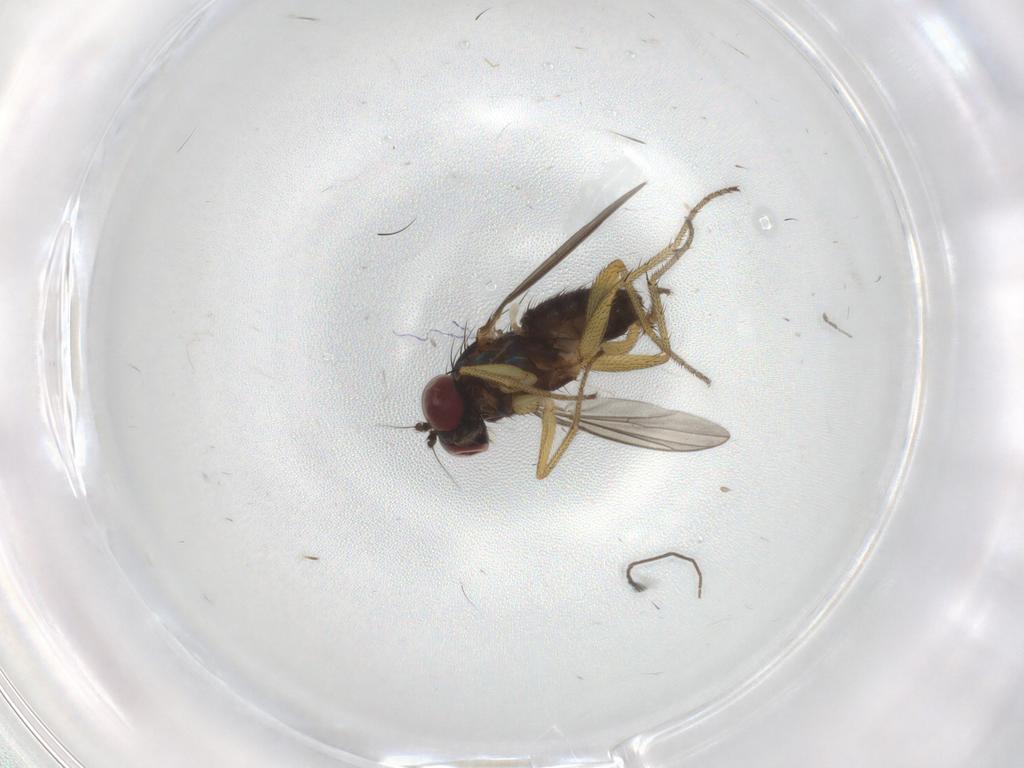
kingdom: Animalia
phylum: Arthropoda
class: Insecta
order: Diptera
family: Dolichopodidae
